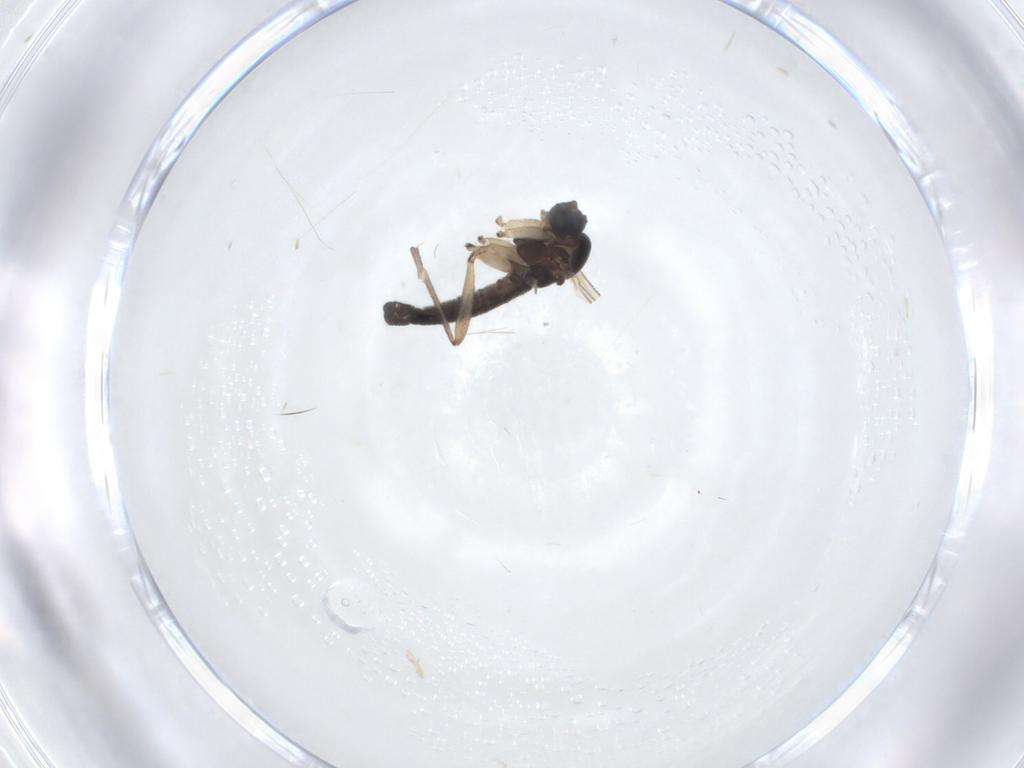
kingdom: Animalia
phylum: Arthropoda
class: Insecta
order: Diptera
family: Sciaridae
